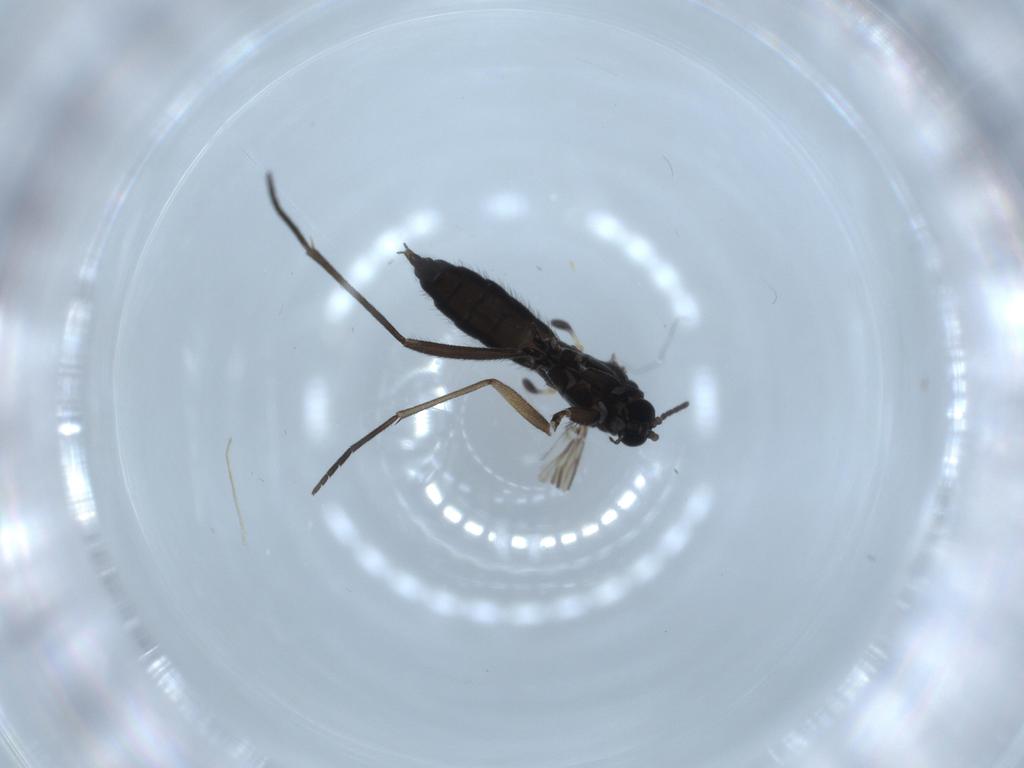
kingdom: Animalia
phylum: Arthropoda
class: Insecta
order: Diptera
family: Sciaridae
